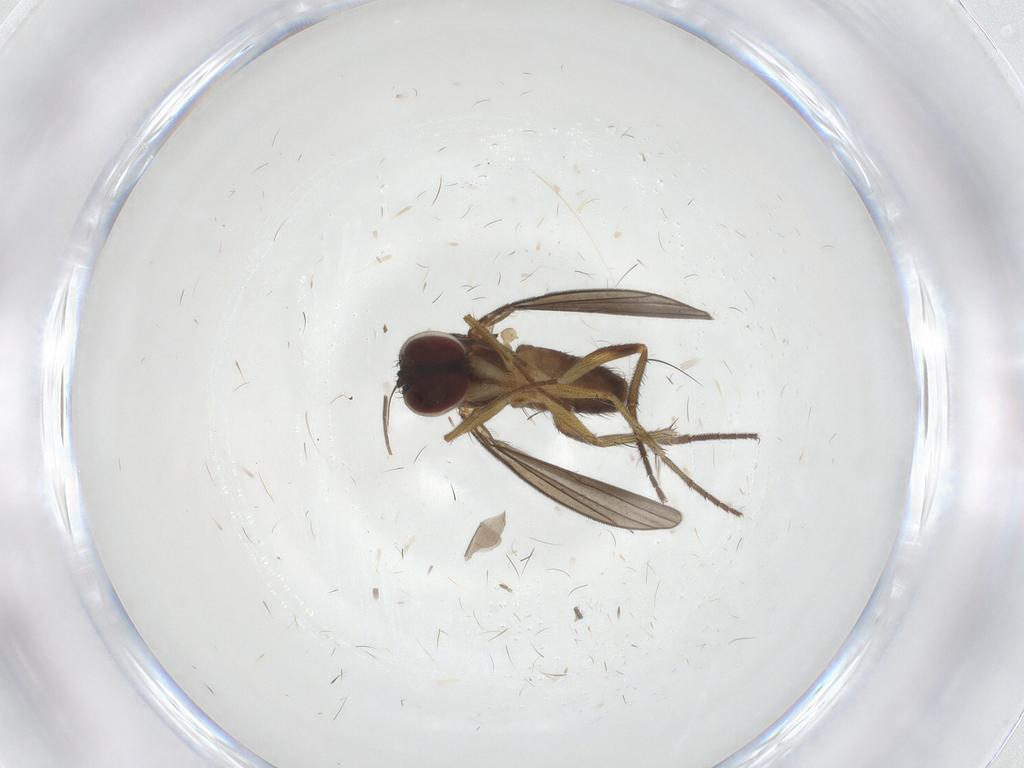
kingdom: Animalia
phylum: Arthropoda
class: Insecta
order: Diptera
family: Dolichopodidae
